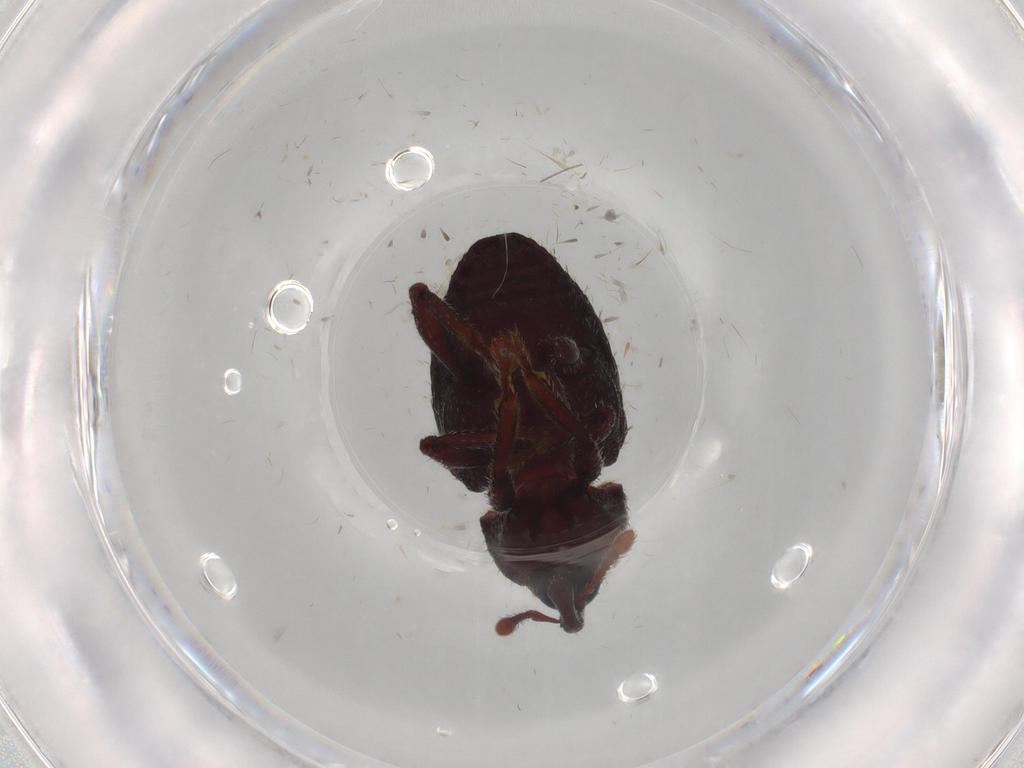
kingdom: Animalia
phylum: Arthropoda
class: Insecta
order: Coleoptera
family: Curculionidae
